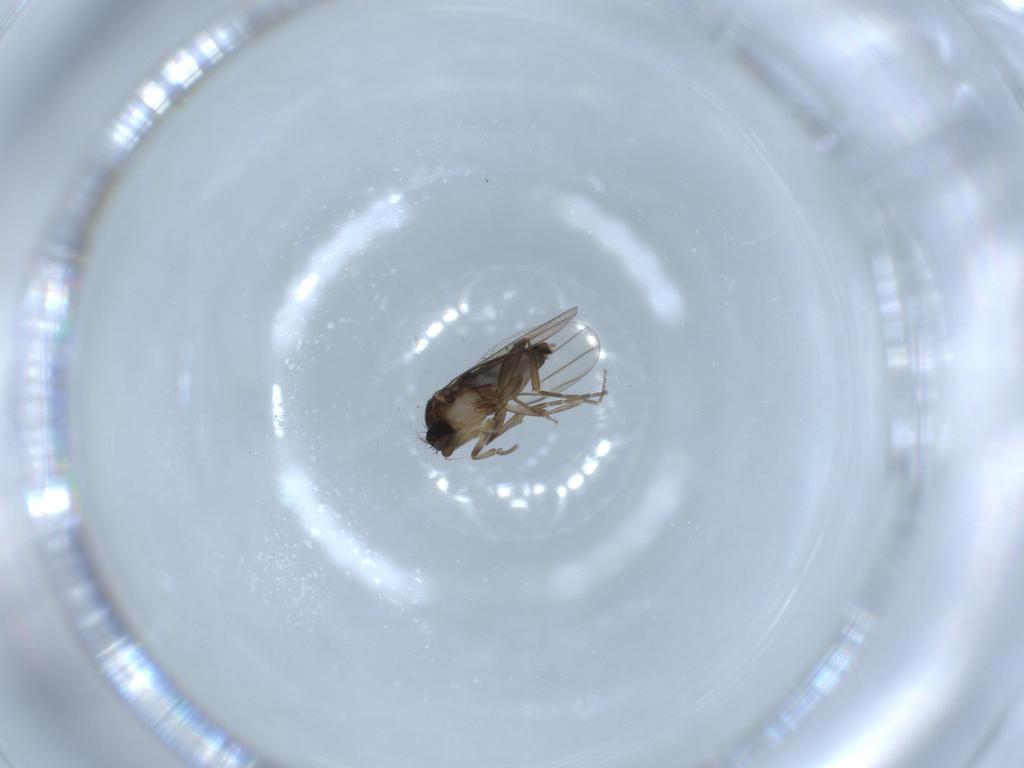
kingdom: Animalia
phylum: Arthropoda
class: Insecta
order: Diptera
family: Phoridae
